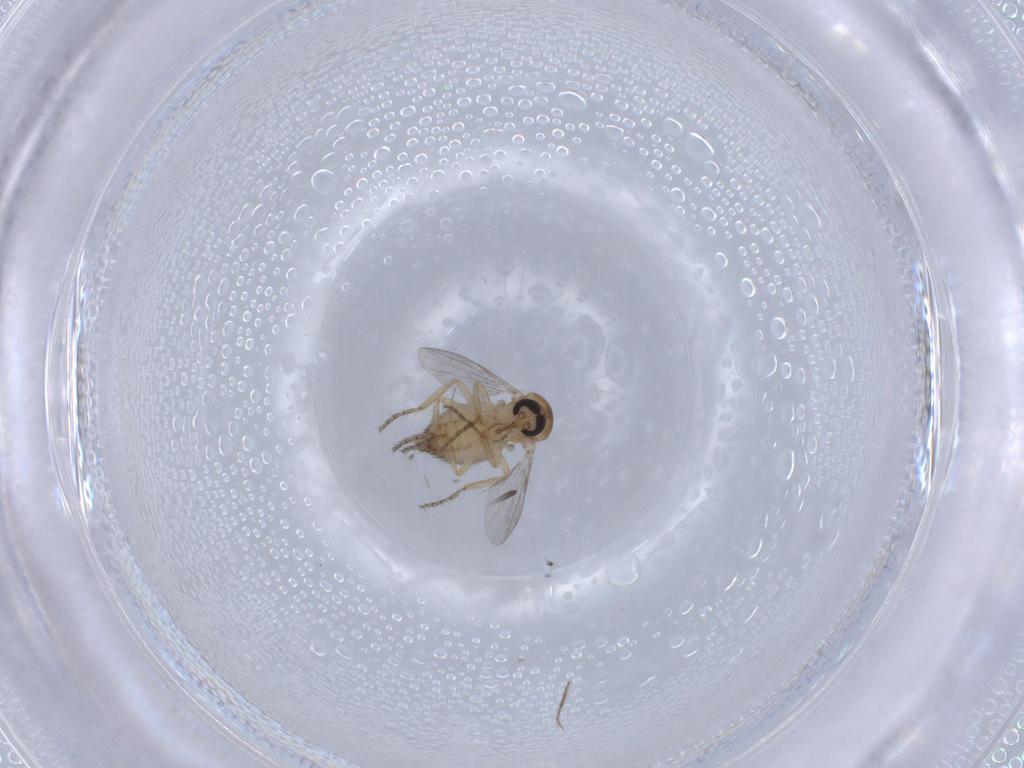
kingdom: Animalia
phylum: Arthropoda
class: Insecta
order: Diptera
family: Ceratopogonidae
